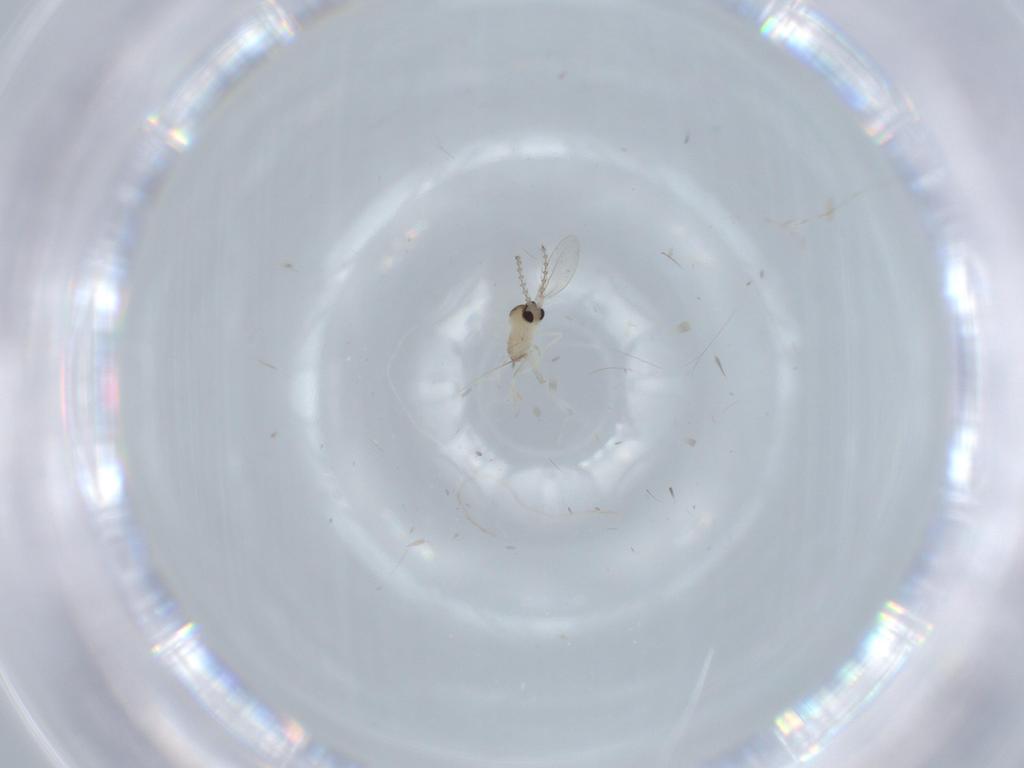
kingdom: Animalia
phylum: Arthropoda
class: Insecta
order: Diptera
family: Cecidomyiidae
